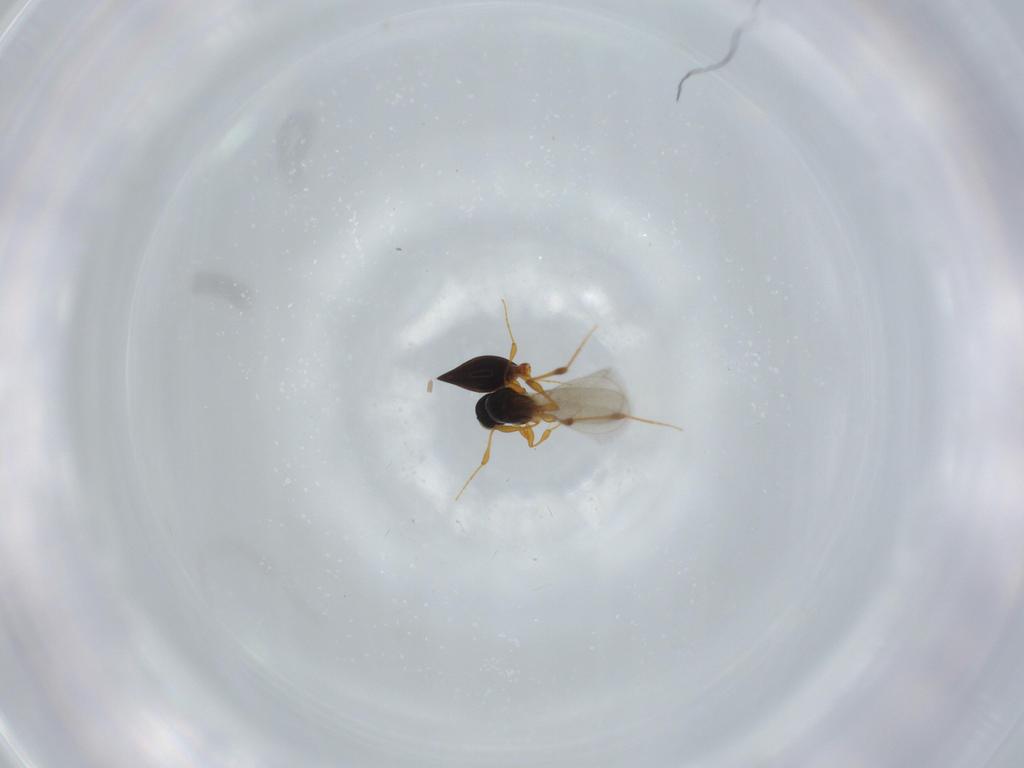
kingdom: Animalia
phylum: Arthropoda
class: Insecta
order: Hymenoptera
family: Platygastridae
